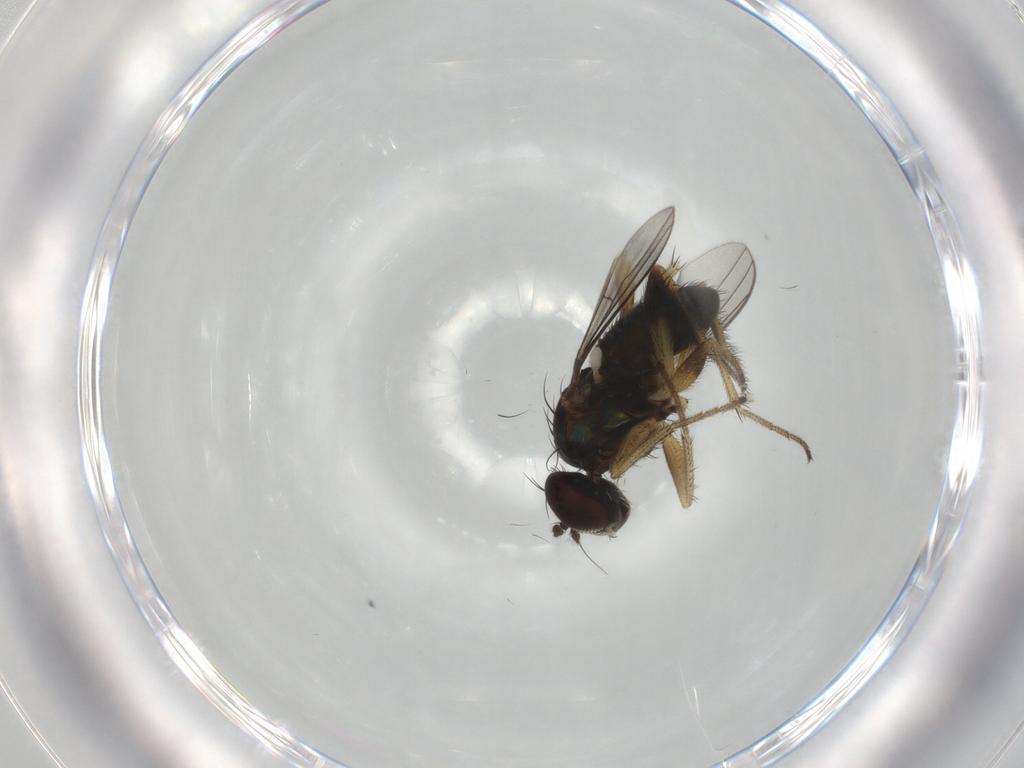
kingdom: Animalia
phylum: Arthropoda
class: Insecta
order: Diptera
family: Dolichopodidae
